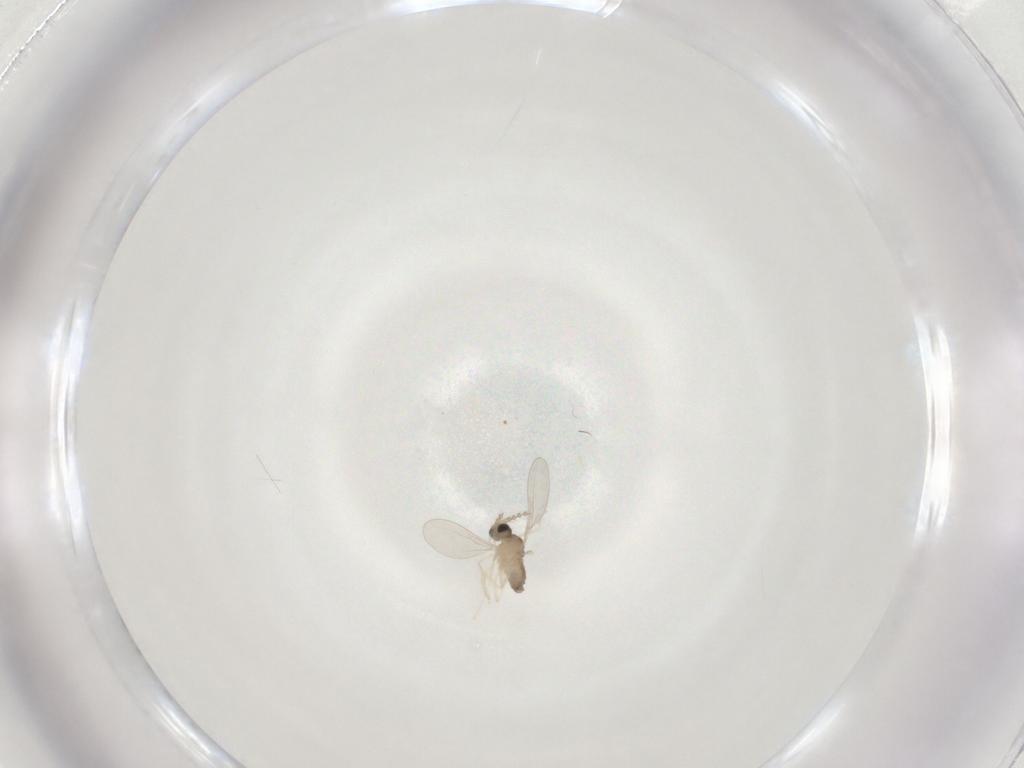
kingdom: Animalia
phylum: Arthropoda
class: Insecta
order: Diptera
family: Cecidomyiidae
